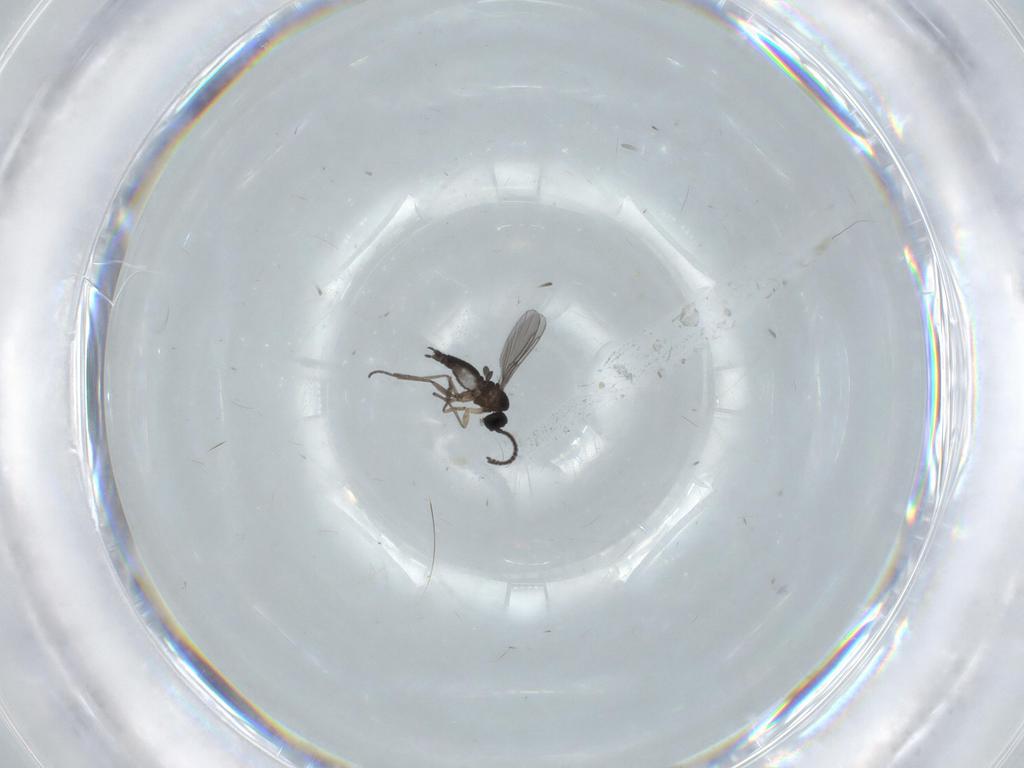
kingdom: Animalia
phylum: Arthropoda
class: Insecta
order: Diptera
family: Sciaridae
